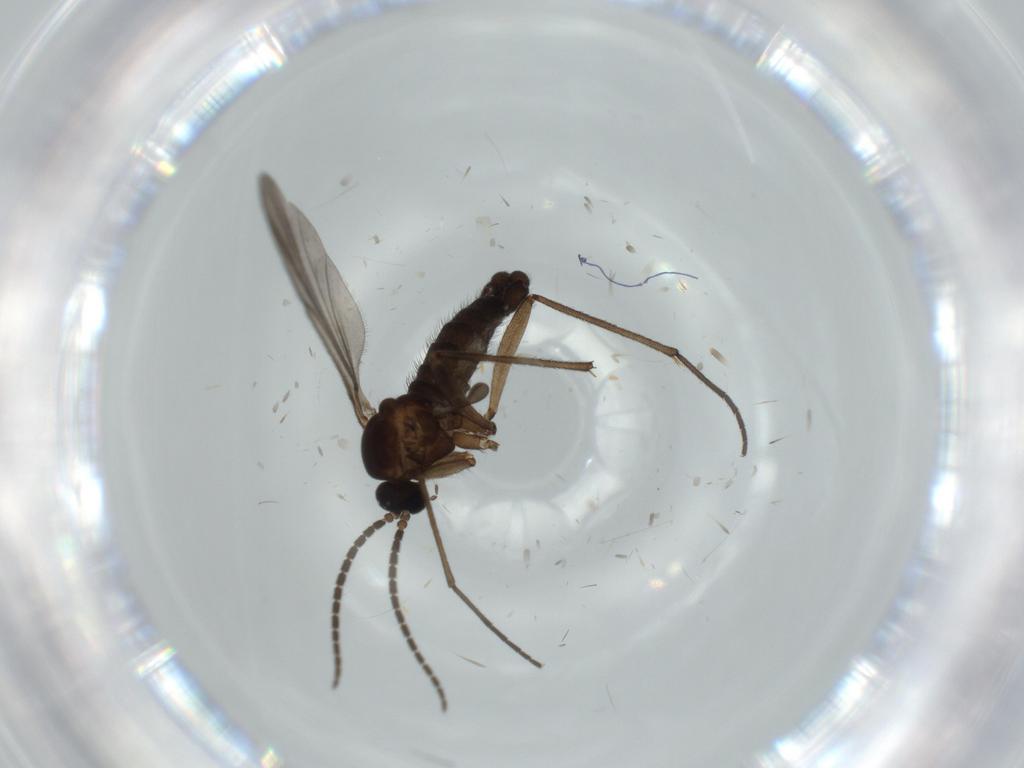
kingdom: Animalia
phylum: Arthropoda
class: Insecta
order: Diptera
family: Sciaridae
